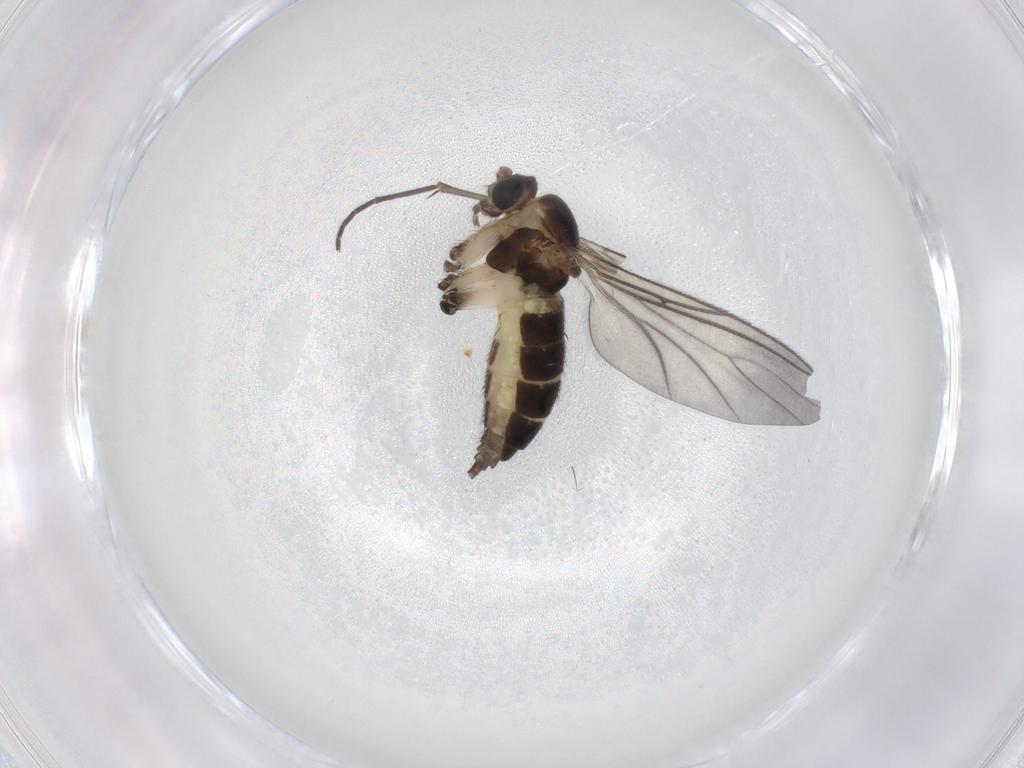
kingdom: Animalia
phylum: Arthropoda
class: Insecta
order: Diptera
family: Sciaridae
